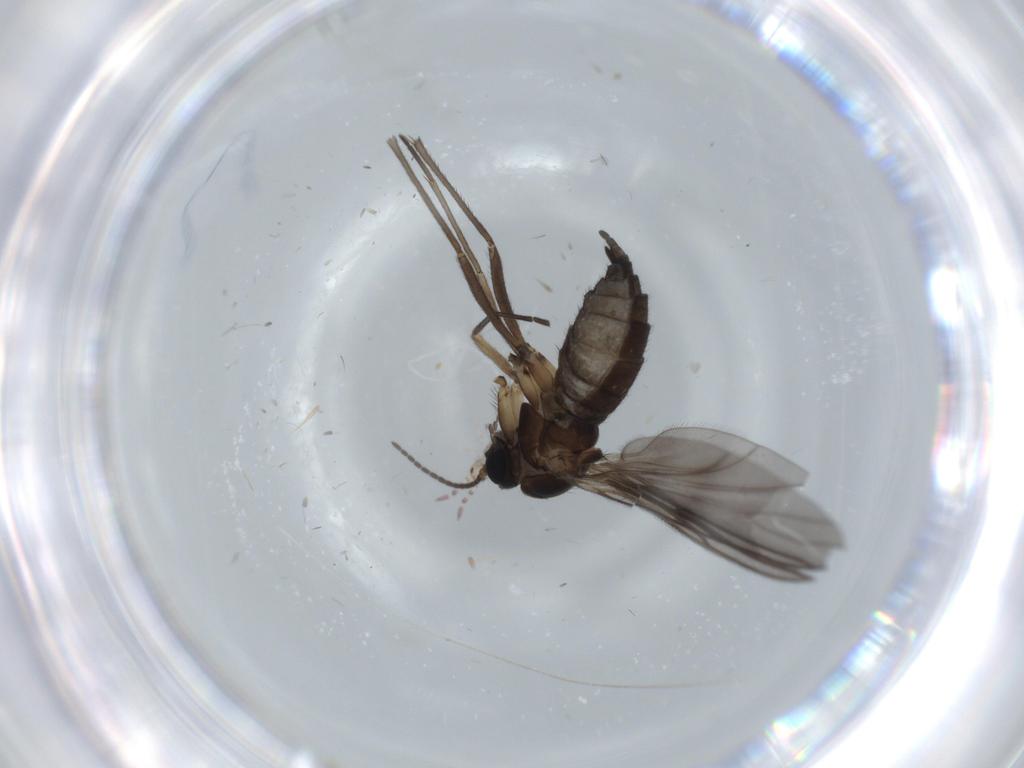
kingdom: Animalia
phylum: Arthropoda
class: Insecta
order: Diptera
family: Sciaridae
